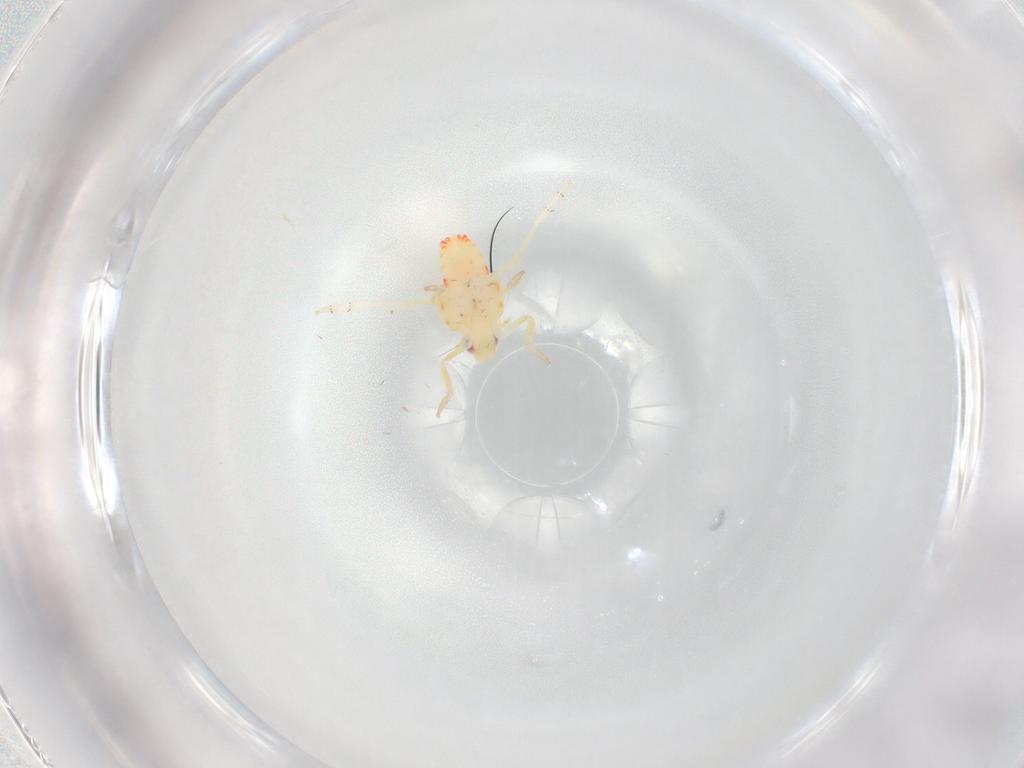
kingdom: Animalia
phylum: Arthropoda
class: Insecta
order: Hemiptera
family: Tropiduchidae
